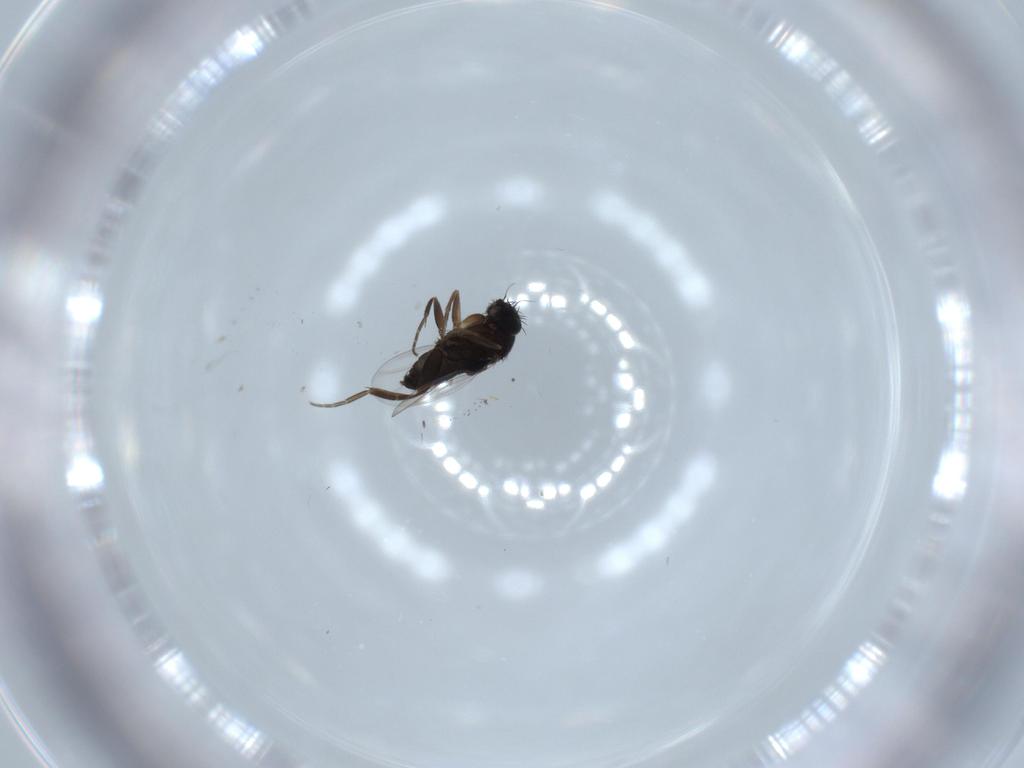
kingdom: Animalia
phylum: Arthropoda
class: Insecta
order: Diptera
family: Phoridae
